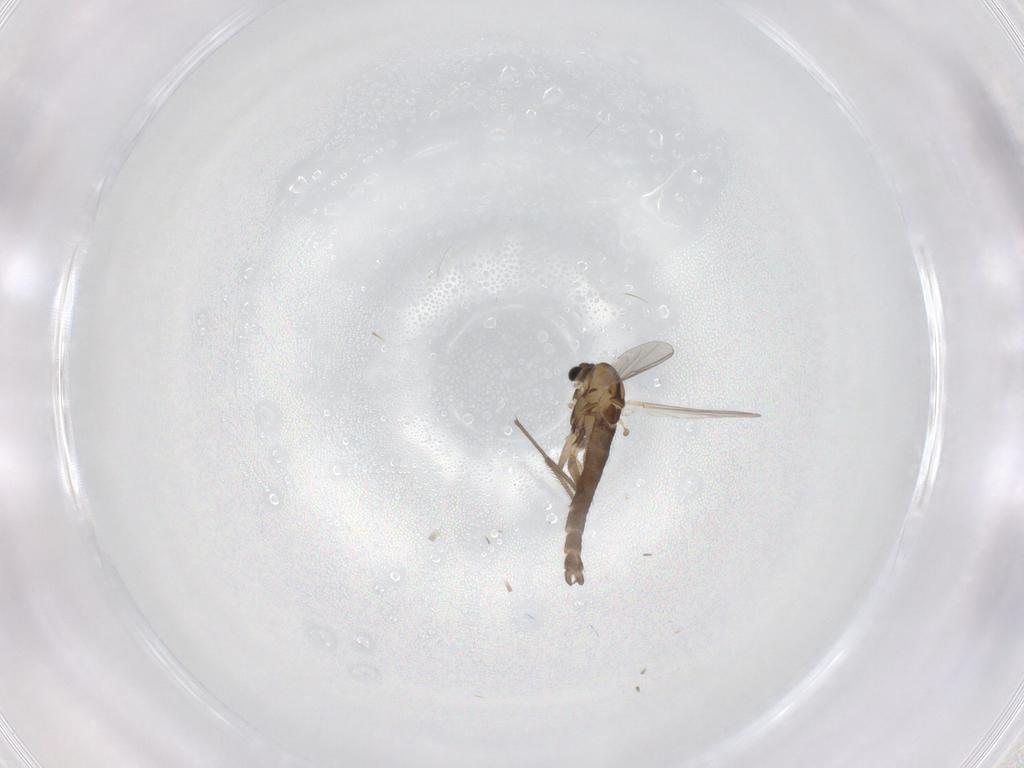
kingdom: Animalia
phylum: Arthropoda
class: Insecta
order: Diptera
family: Chironomidae
